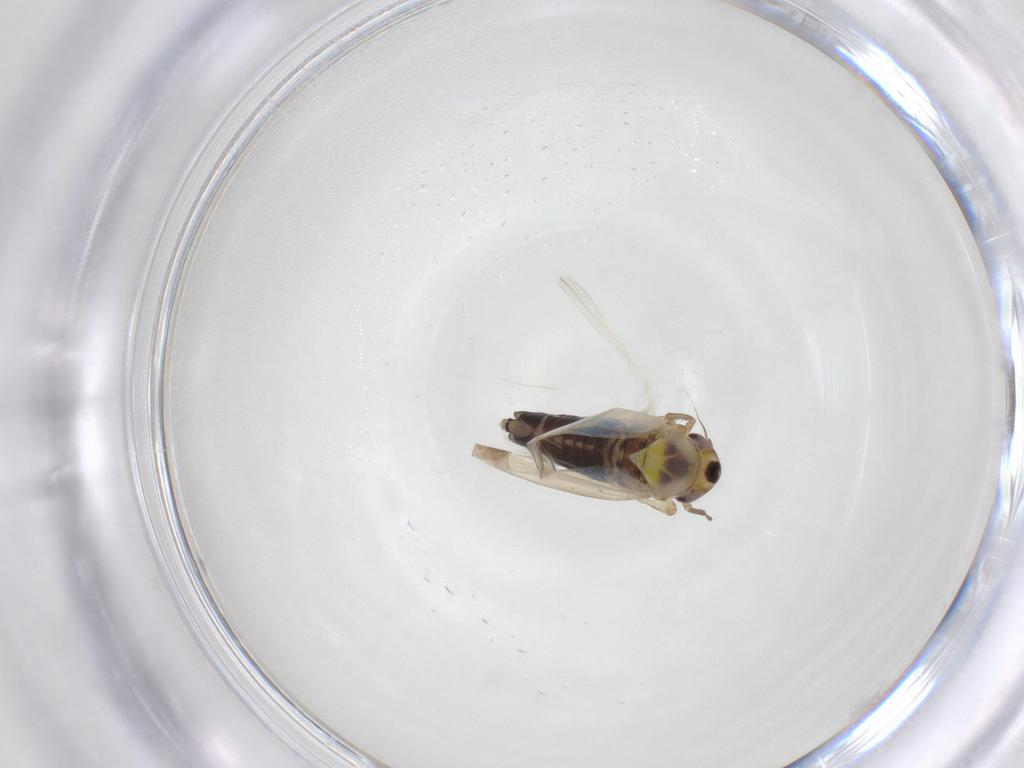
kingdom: Animalia
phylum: Arthropoda
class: Insecta
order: Hemiptera
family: Cicadellidae
